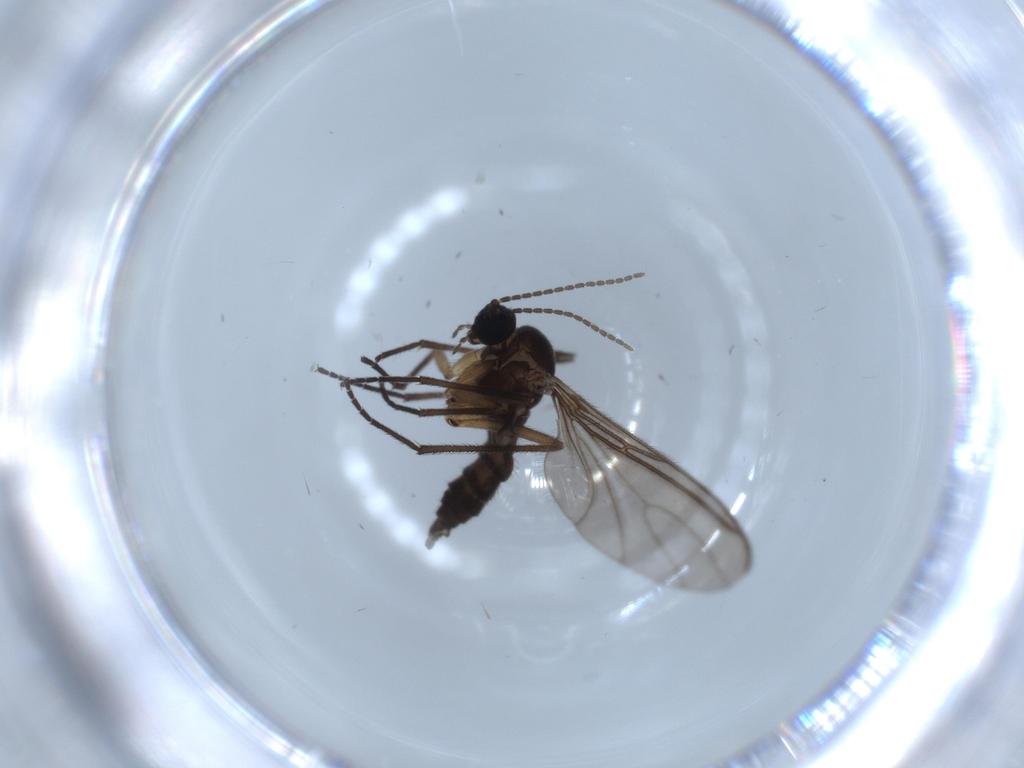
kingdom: Animalia
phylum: Arthropoda
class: Insecta
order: Diptera
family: Sciaridae
